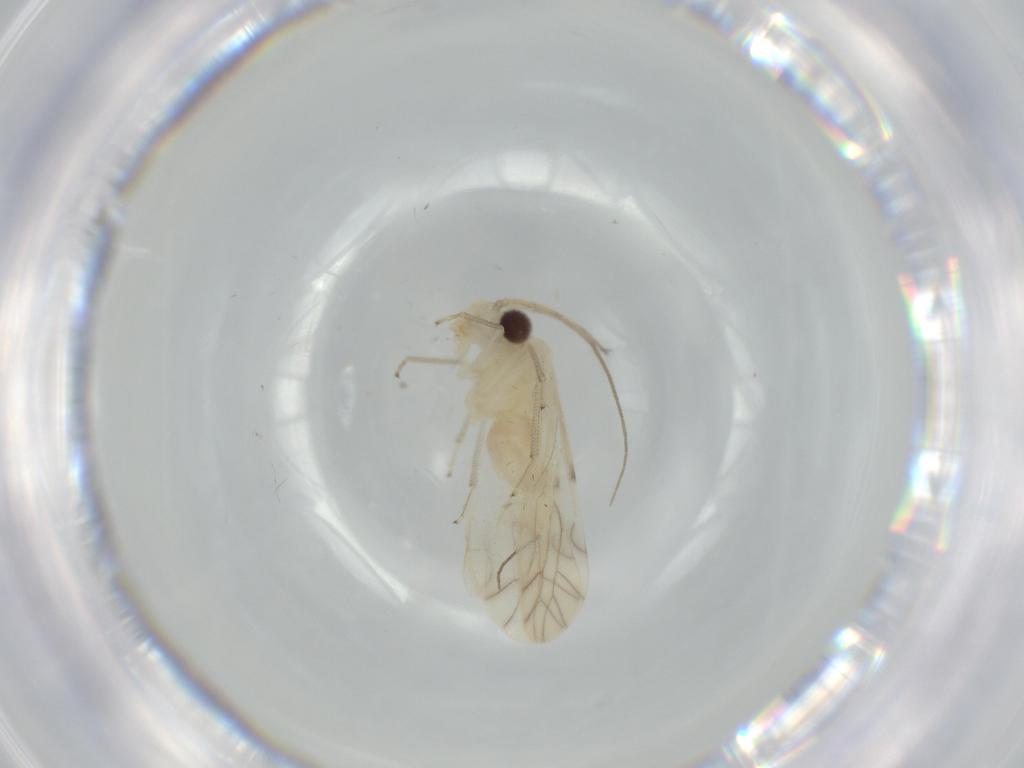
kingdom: Animalia
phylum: Arthropoda
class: Insecta
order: Psocodea
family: Caeciliusidae
